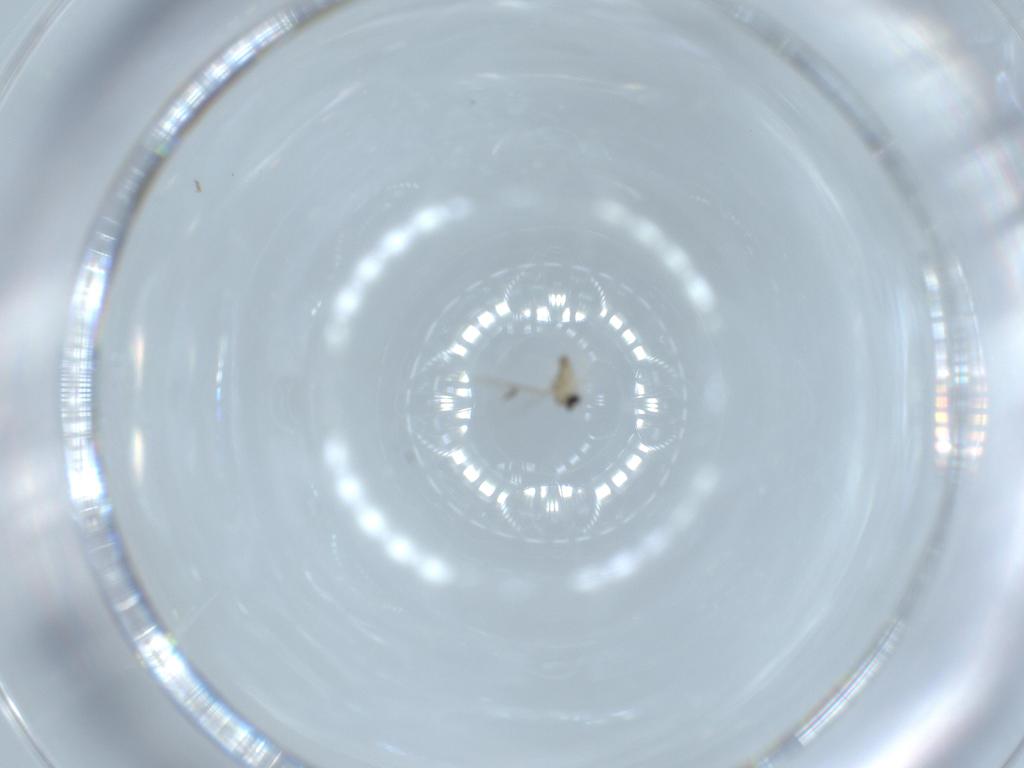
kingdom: Animalia
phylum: Arthropoda
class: Insecta
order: Diptera
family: Cecidomyiidae
